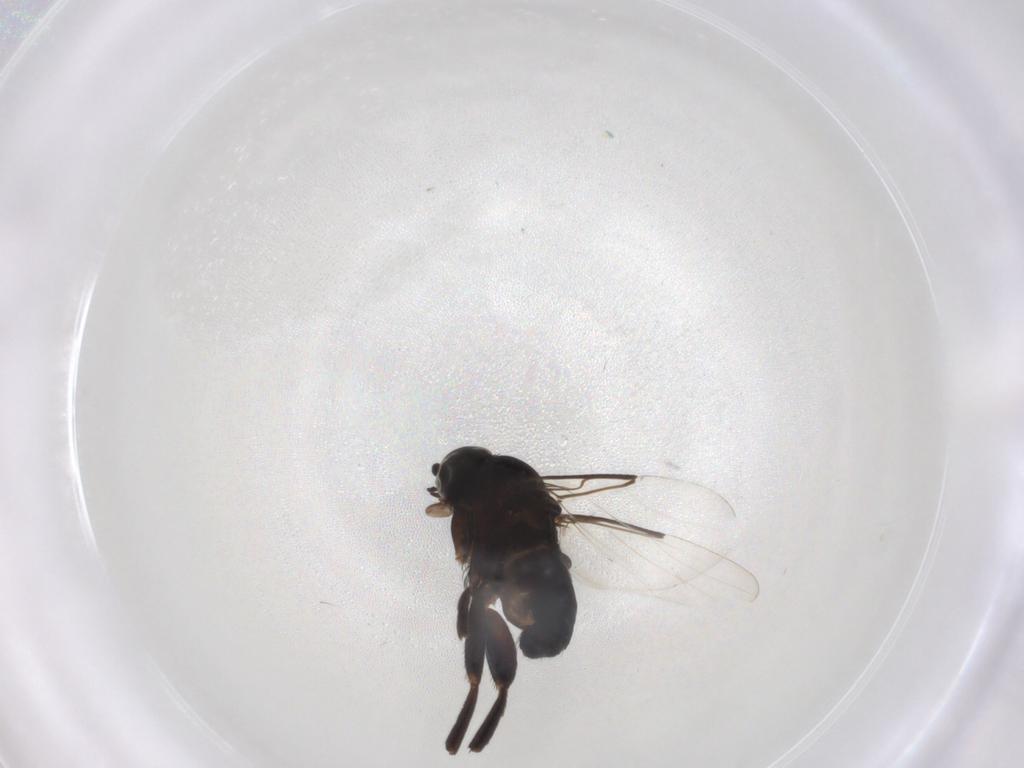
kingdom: Animalia
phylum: Arthropoda
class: Insecta
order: Diptera
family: Phoridae
